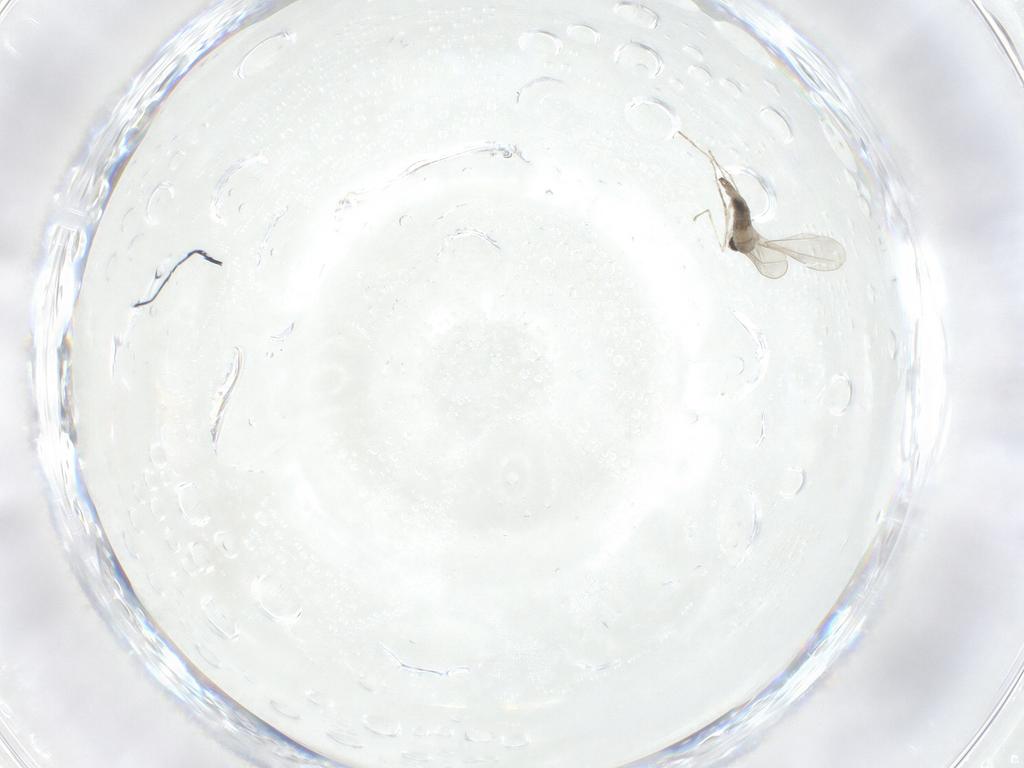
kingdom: Animalia
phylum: Arthropoda
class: Insecta
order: Diptera
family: Cecidomyiidae
